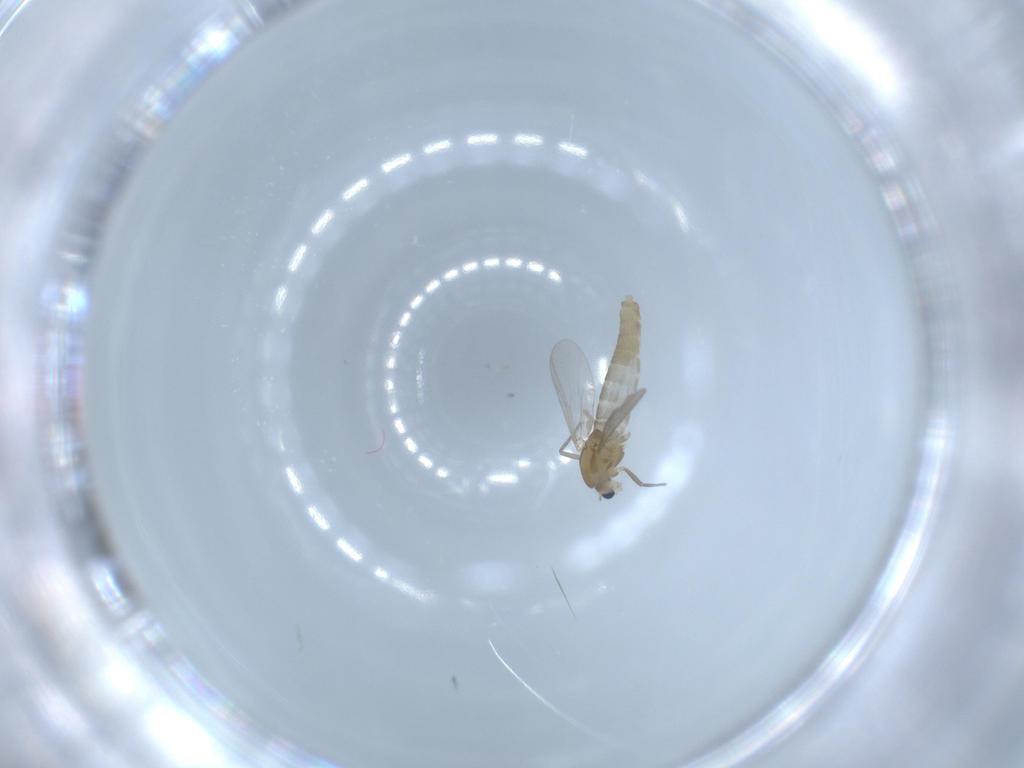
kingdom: Animalia
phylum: Arthropoda
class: Insecta
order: Diptera
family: Chironomidae
